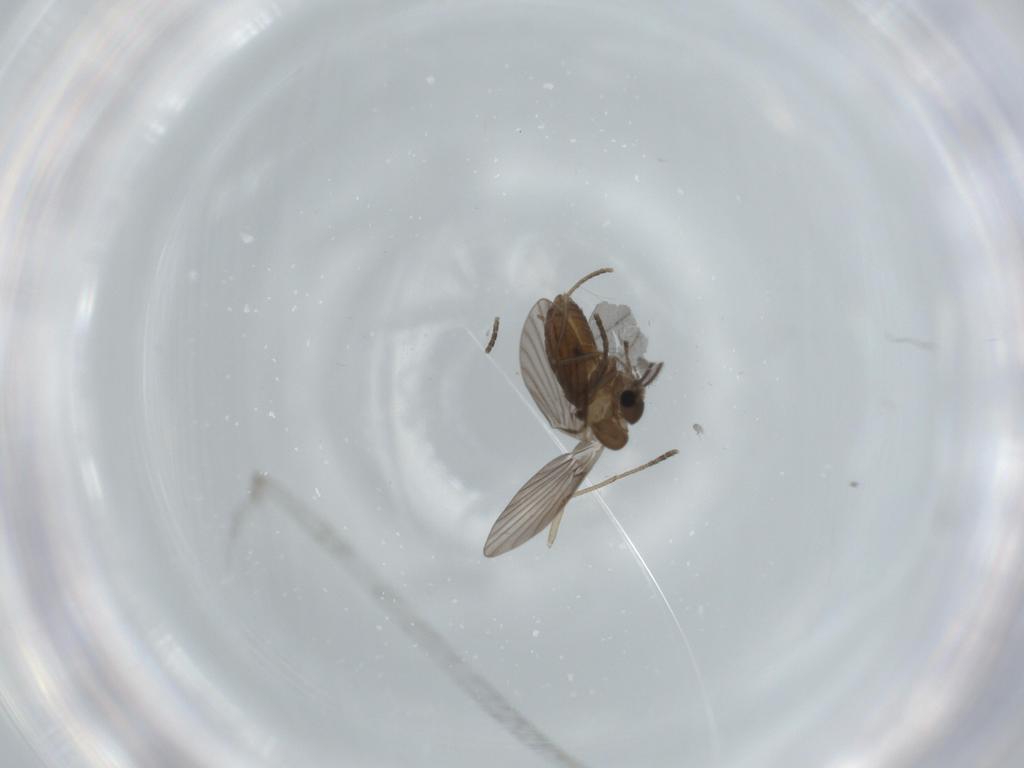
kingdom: Animalia
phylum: Arthropoda
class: Insecta
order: Diptera
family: Psychodidae
